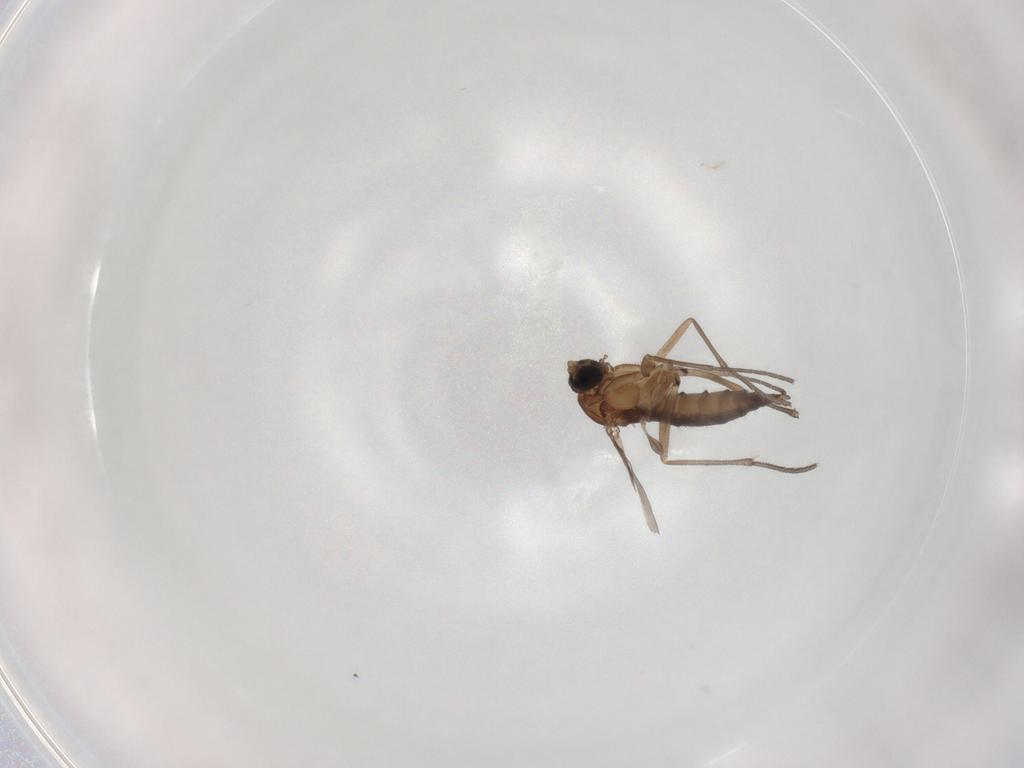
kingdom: Animalia
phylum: Arthropoda
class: Insecta
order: Diptera
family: Sciaridae
